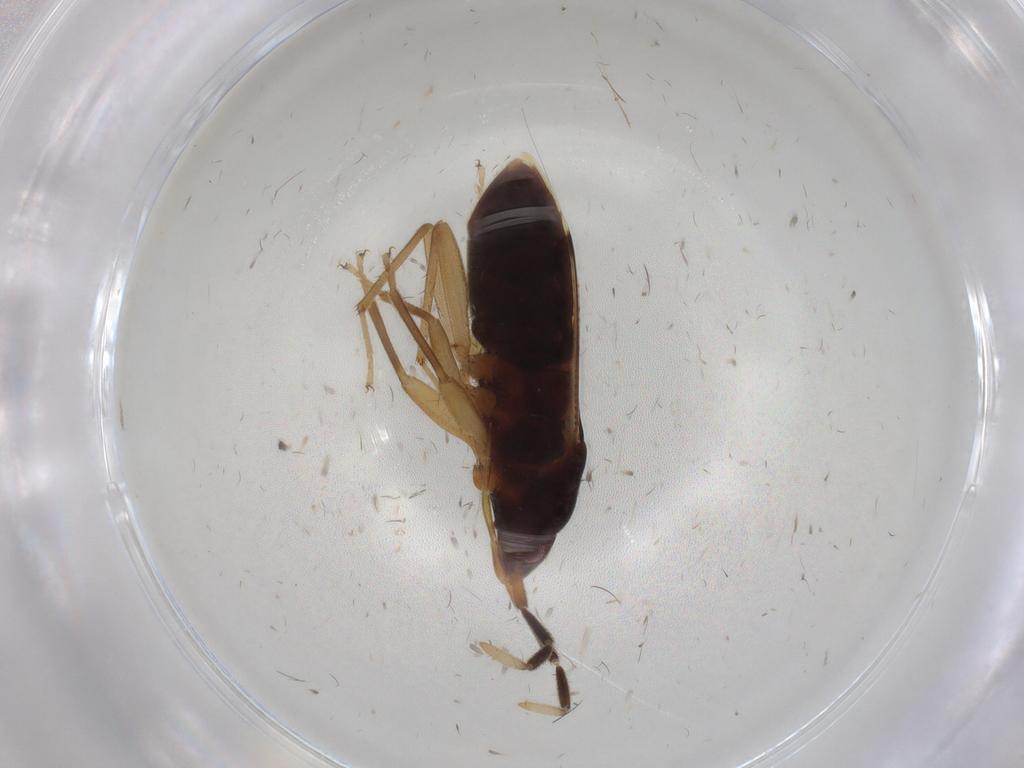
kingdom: Animalia
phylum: Arthropoda
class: Insecta
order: Hemiptera
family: Rhyparochromidae
